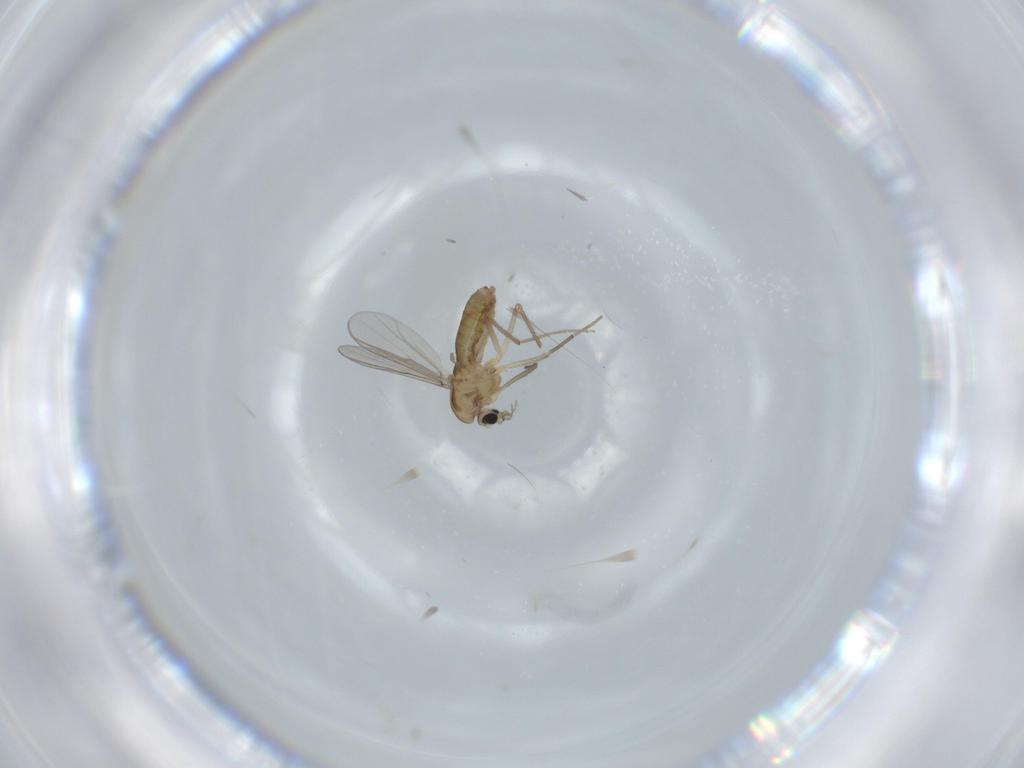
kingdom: Animalia
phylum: Arthropoda
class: Insecta
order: Diptera
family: Chironomidae
